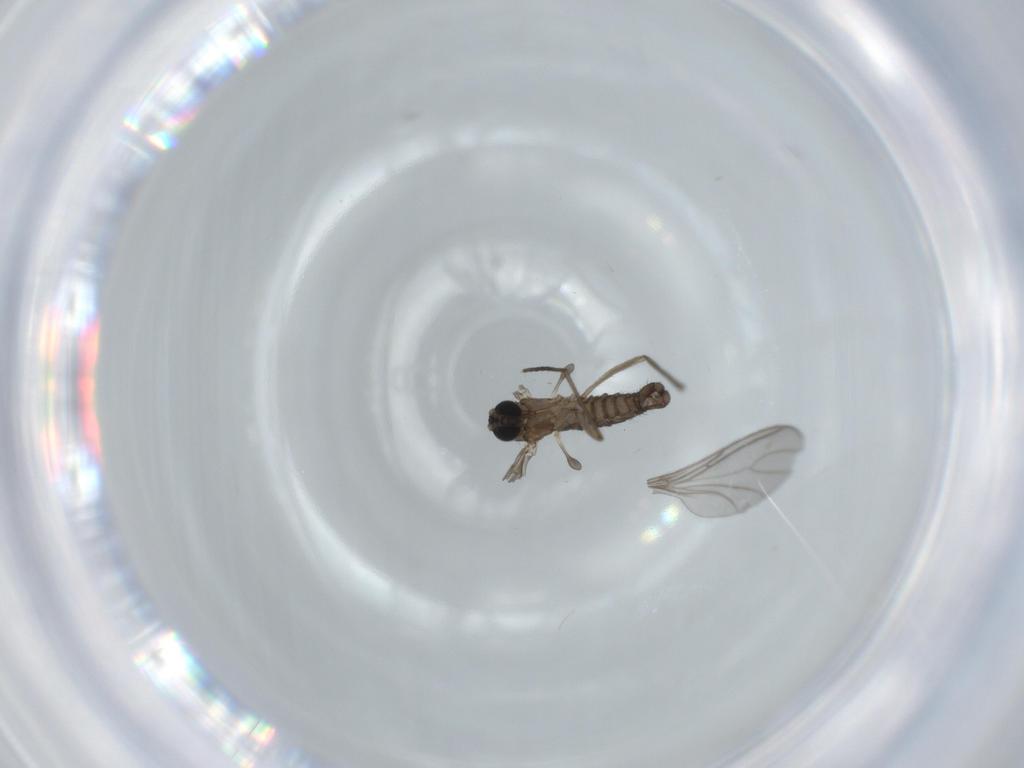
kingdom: Animalia
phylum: Arthropoda
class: Insecta
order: Diptera
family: Sciaridae
